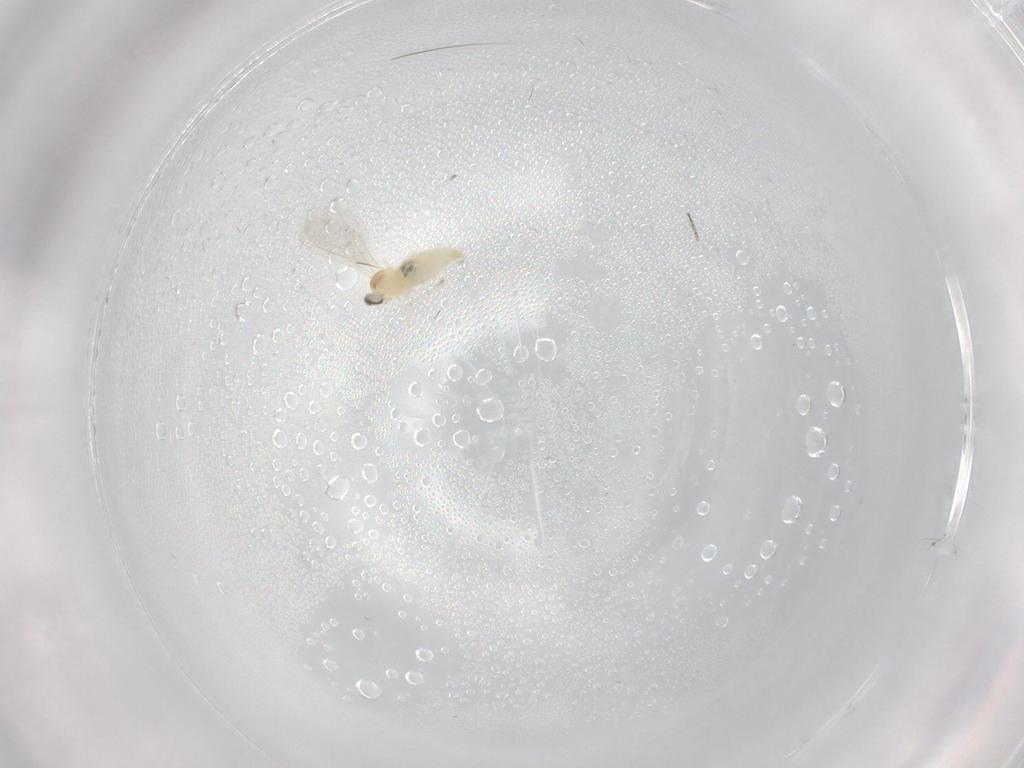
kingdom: Animalia
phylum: Arthropoda
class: Insecta
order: Diptera
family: Cecidomyiidae
